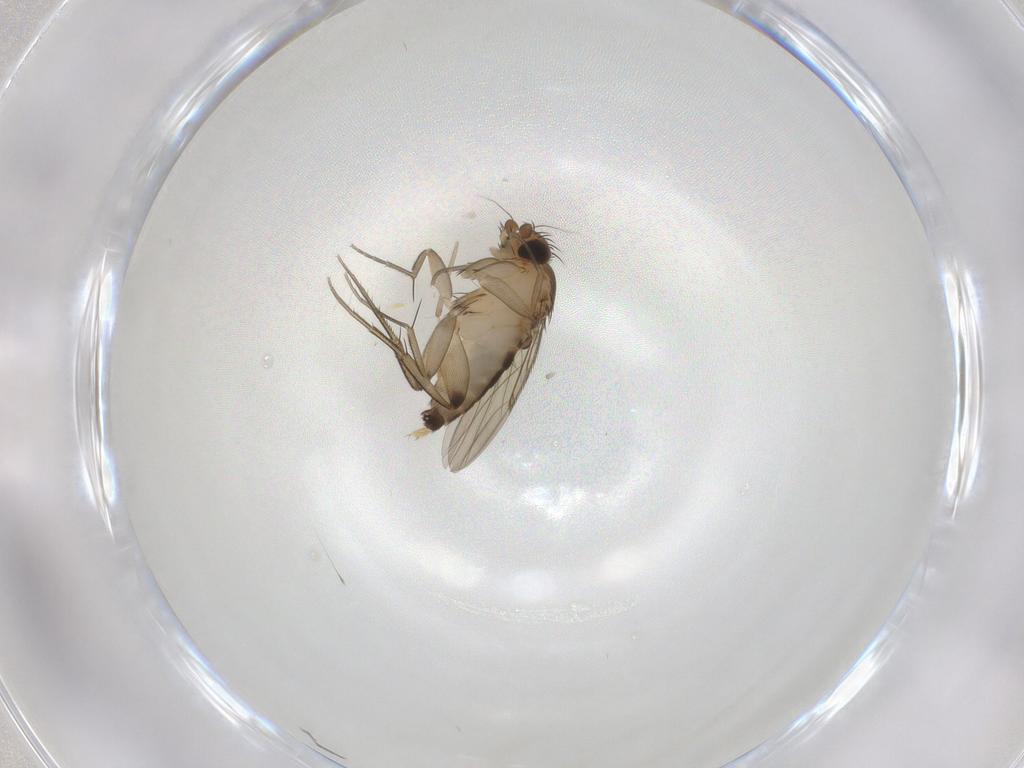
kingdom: Animalia
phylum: Arthropoda
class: Insecta
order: Diptera
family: Cecidomyiidae
